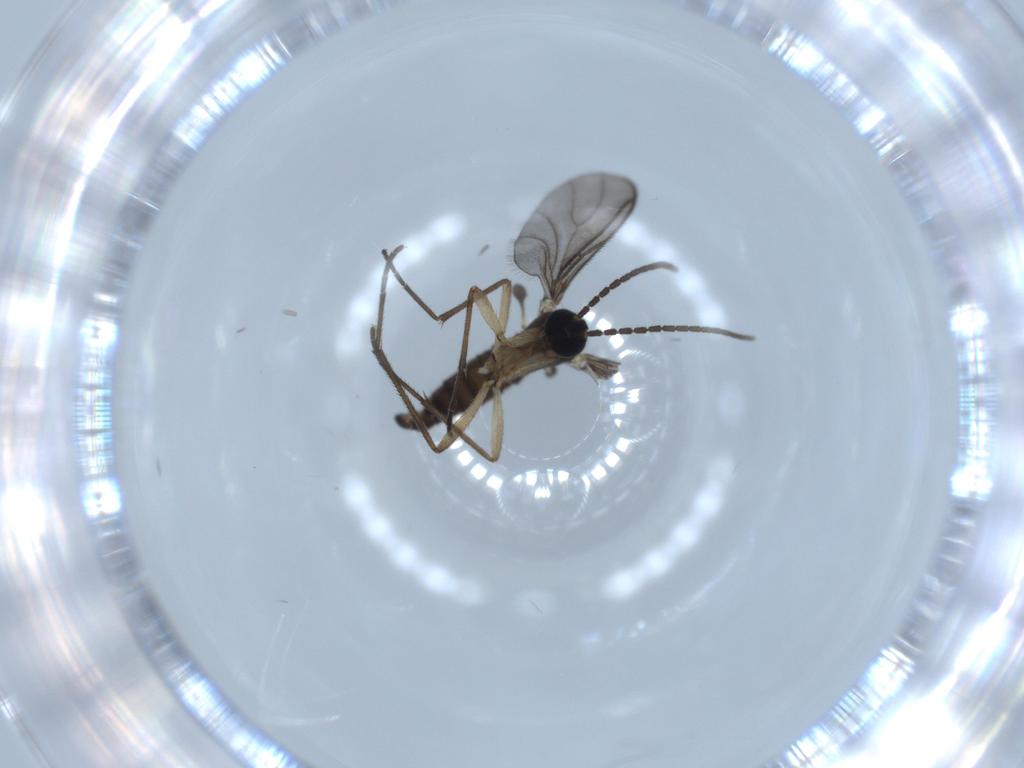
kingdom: Animalia
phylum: Arthropoda
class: Insecta
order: Diptera
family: Sciaridae
